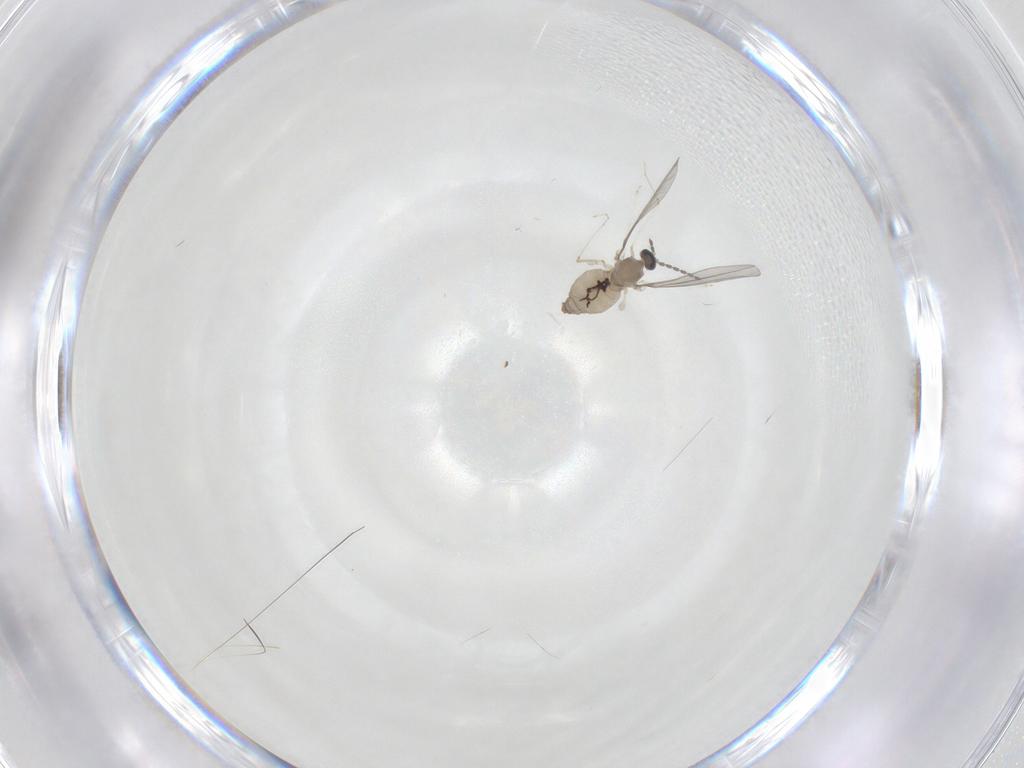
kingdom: Animalia
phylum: Arthropoda
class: Insecta
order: Diptera
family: Cecidomyiidae
